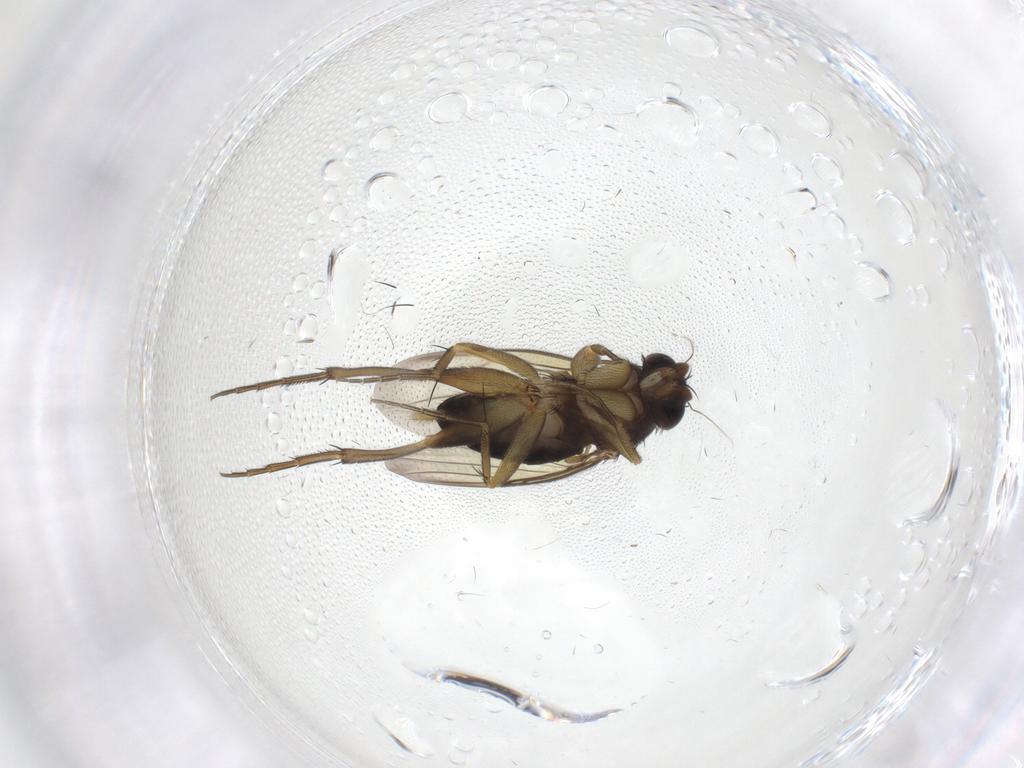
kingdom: Animalia
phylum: Arthropoda
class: Insecta
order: Diptera
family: Phoridae
